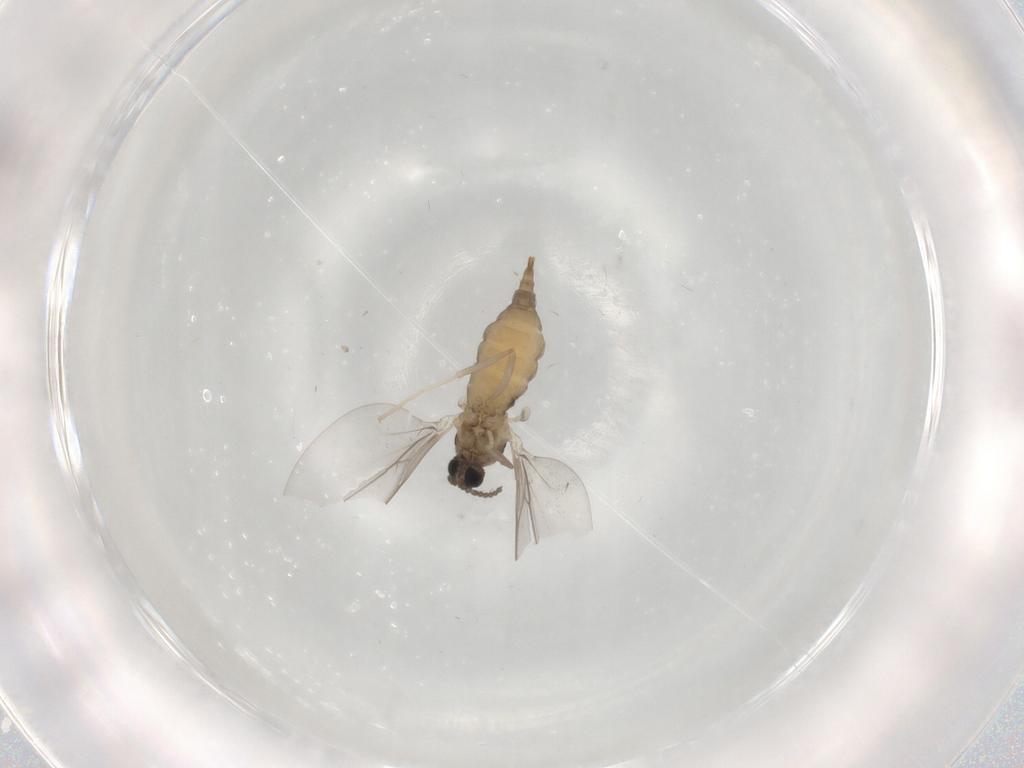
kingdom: Animalia
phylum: Arthropoda
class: Insecta
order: Diptera
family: Cecidomyiidae
